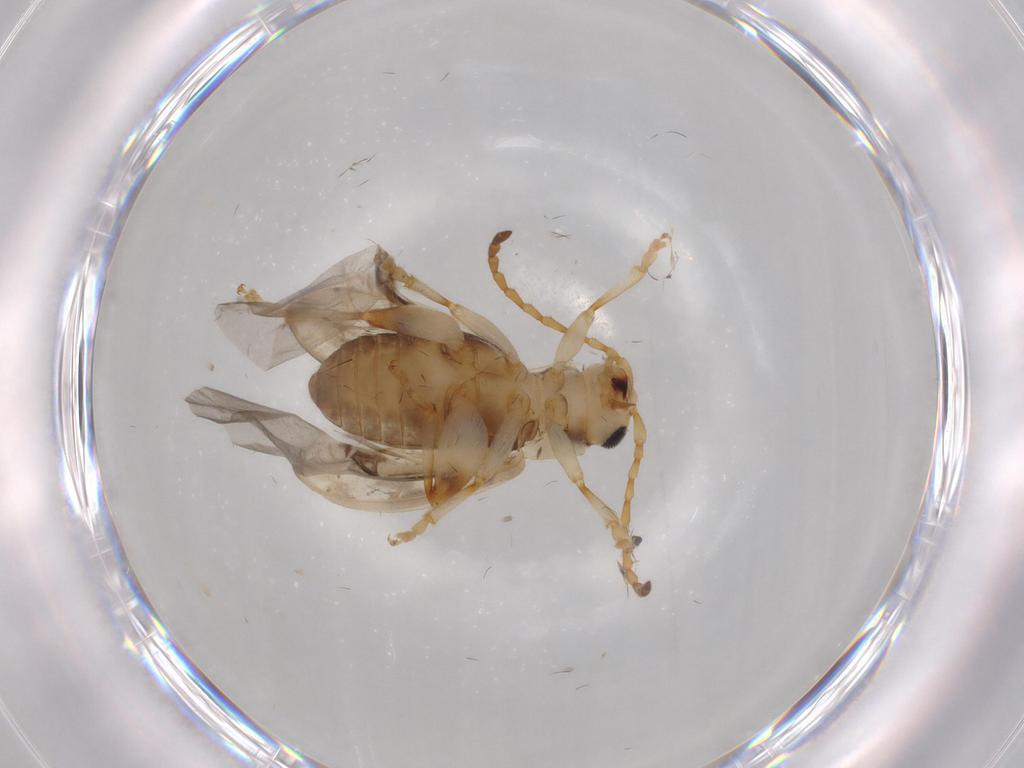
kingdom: Animalia
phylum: Arthropoda
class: Insecta
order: Coleoptera
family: Chrysomelidae
